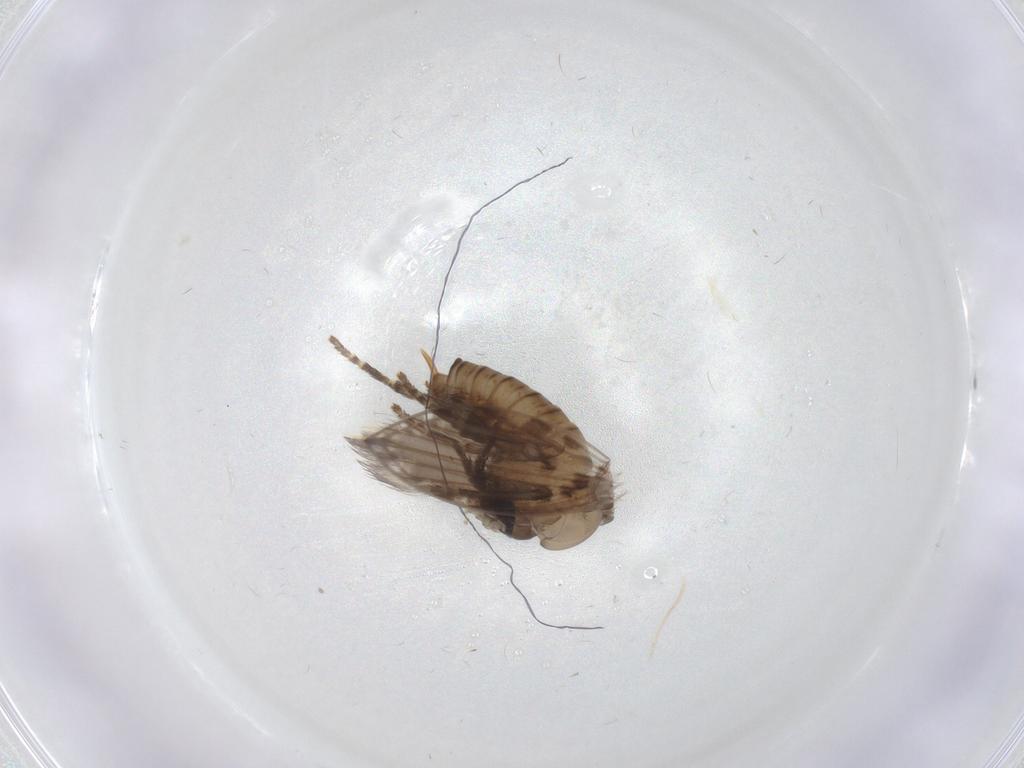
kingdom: Animalia
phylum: Arthropoda
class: Insecta
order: Diptera
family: Psychodidae
